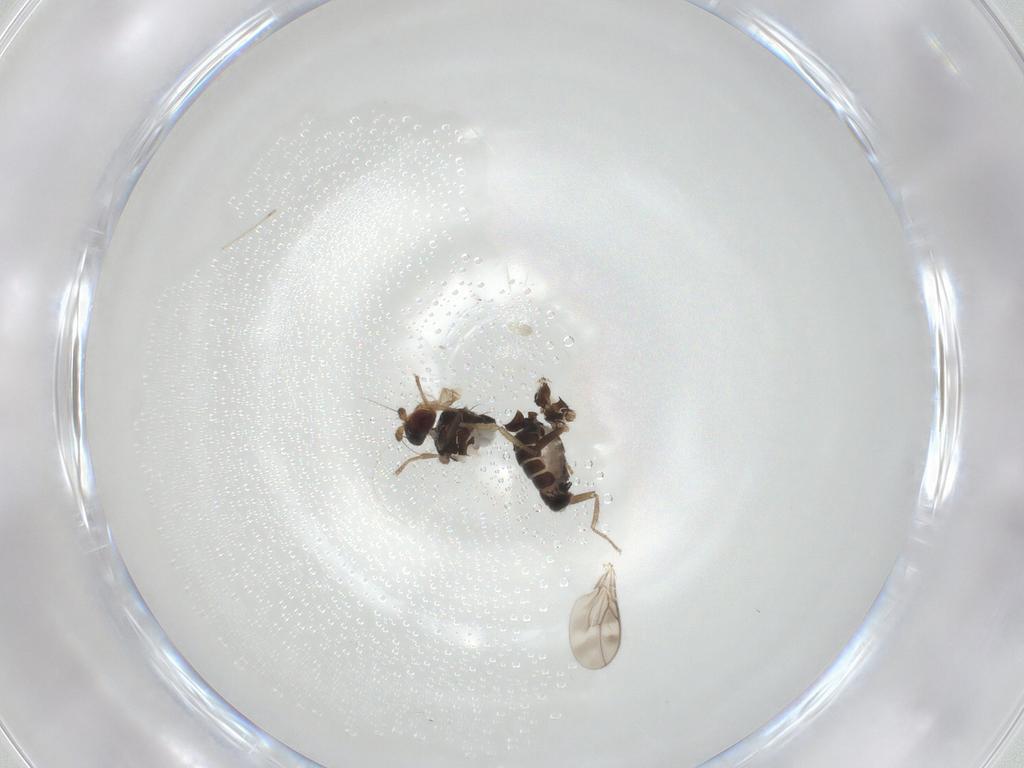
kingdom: Animalia
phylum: Arthropoda
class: Insecta
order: Diptera
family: Sphaeroceridae
